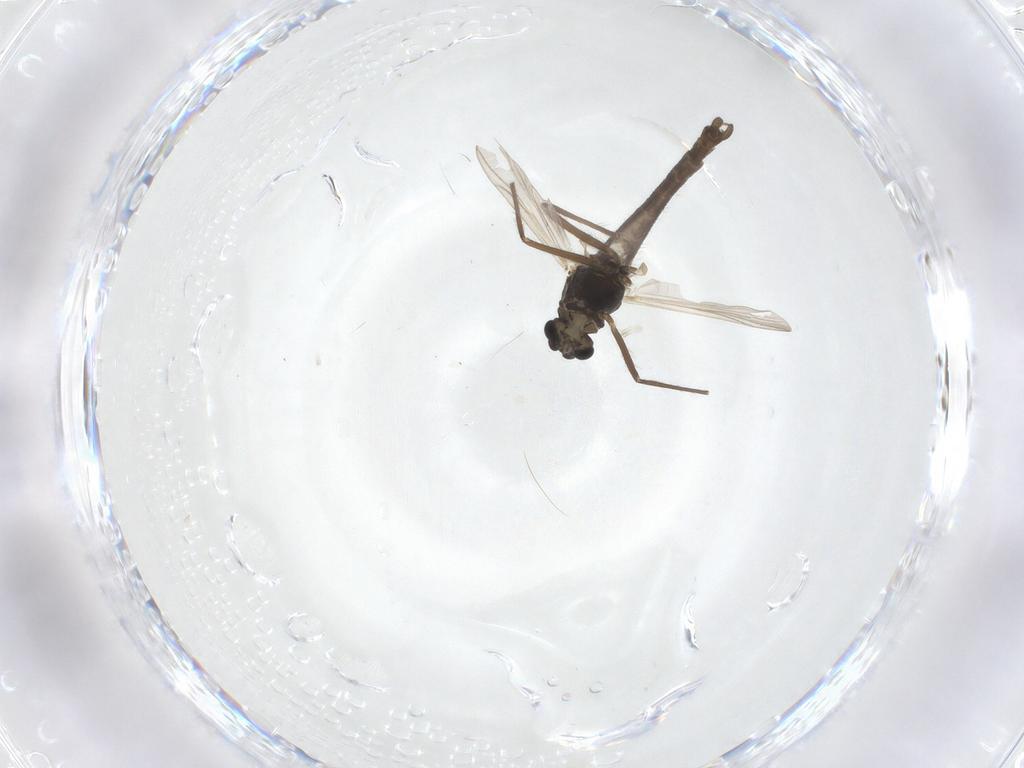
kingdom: Animalia
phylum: Arthropoda
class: Insecta
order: Diptera
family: Chironomidae
